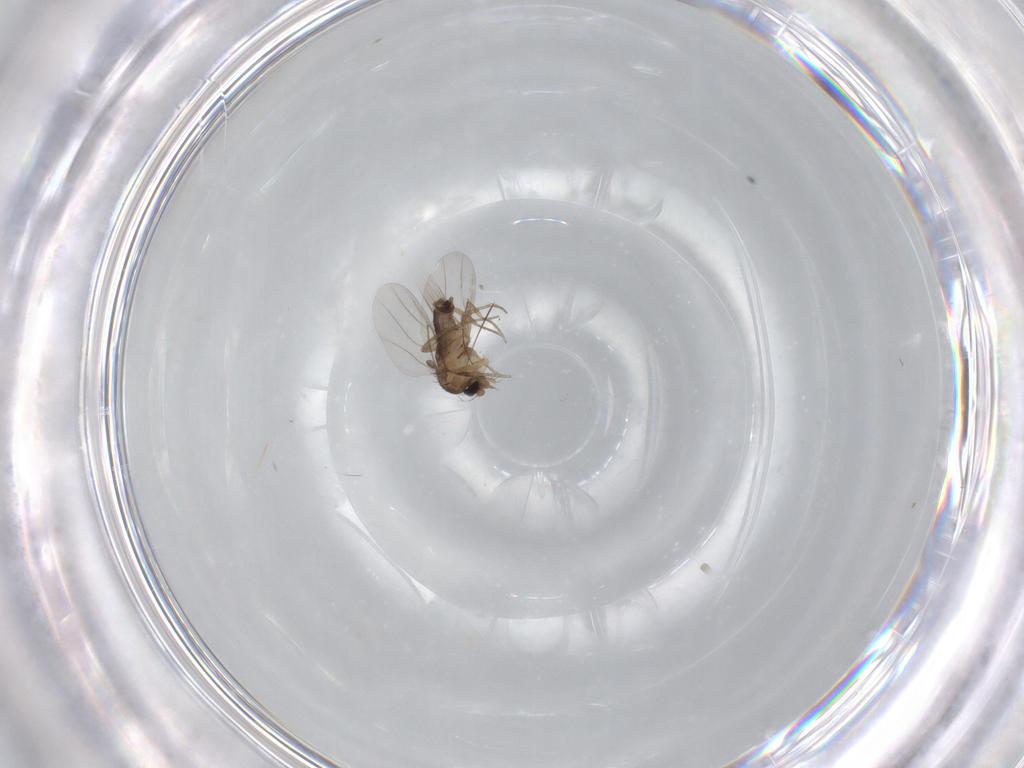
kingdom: Animalia
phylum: Arthropoda
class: Insecta
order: Diptera
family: Phoridae
